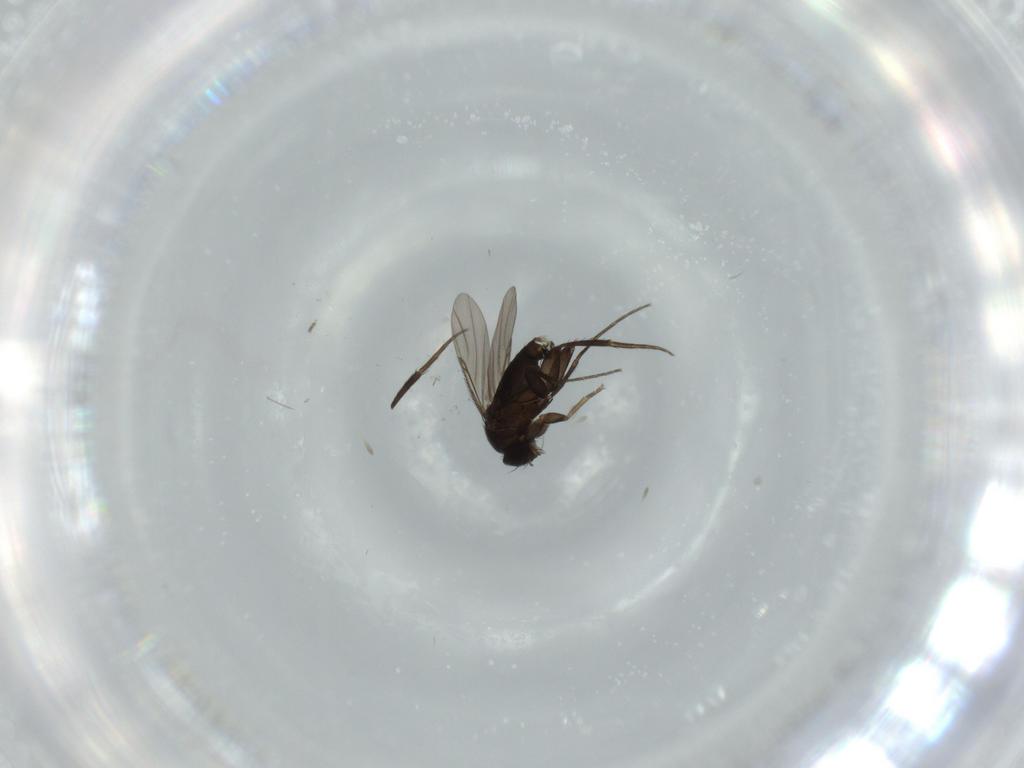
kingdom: Animalia
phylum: Arthropoda
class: Insecta
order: Diptera
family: Phoridae
